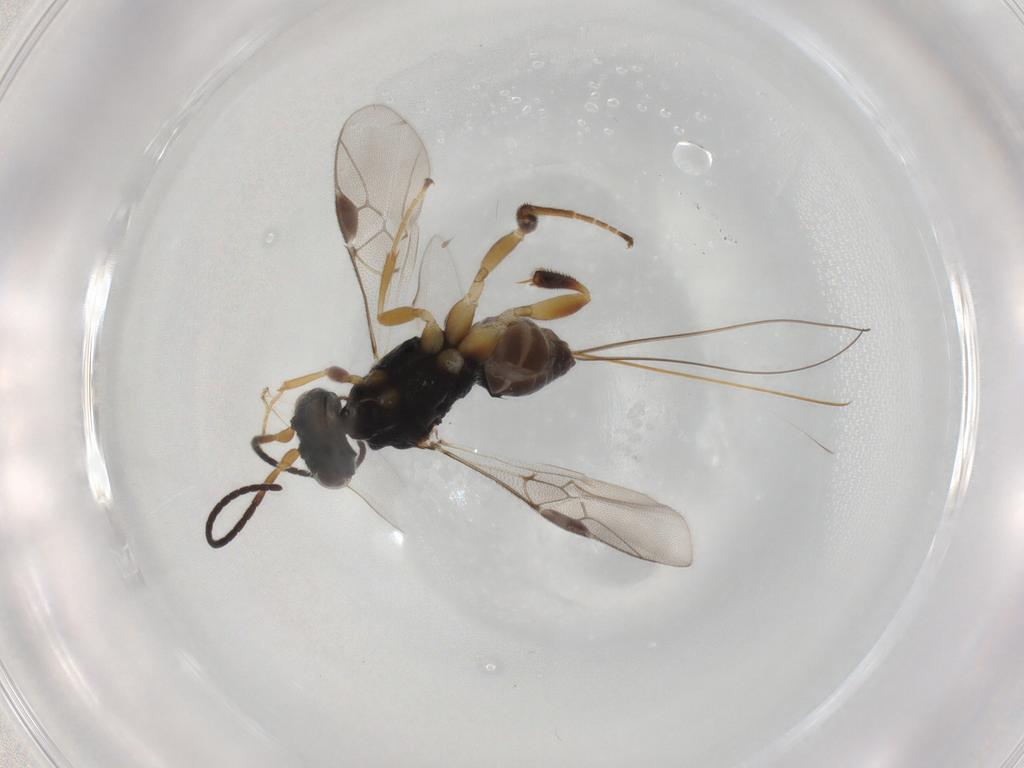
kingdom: Animalia
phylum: Arthropoda
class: Insecta
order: Hymenoptera
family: Braconidae
